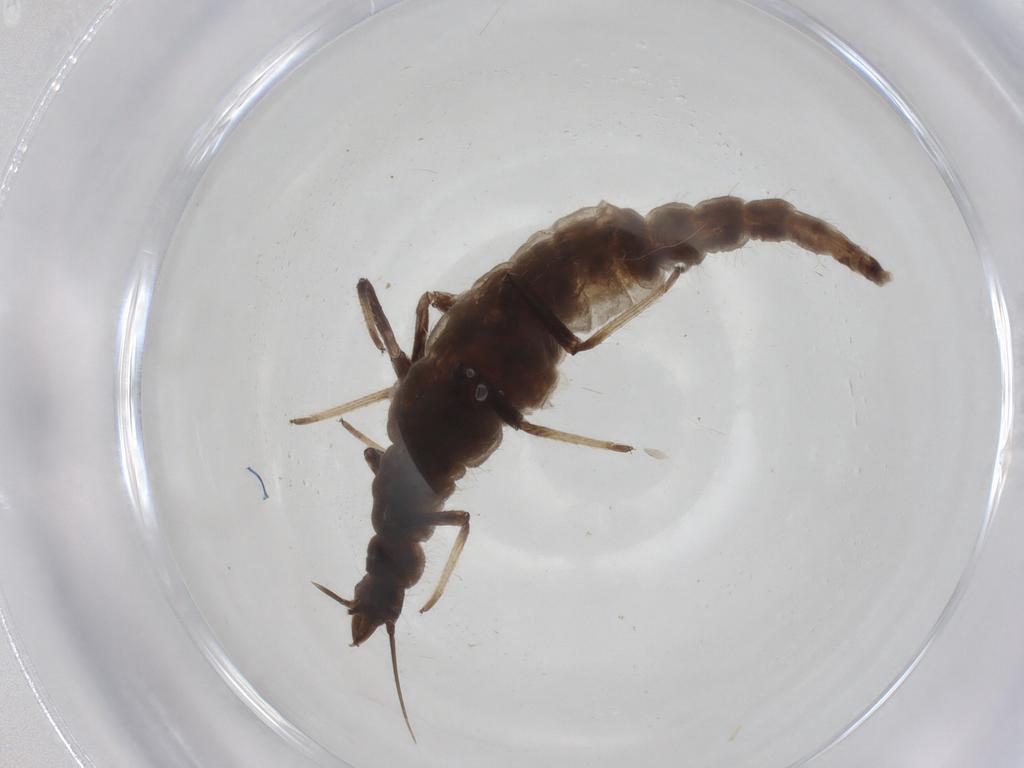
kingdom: Animalia
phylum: Arthropoda
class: Insecta
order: Neuroptera
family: Hemerobiidae
